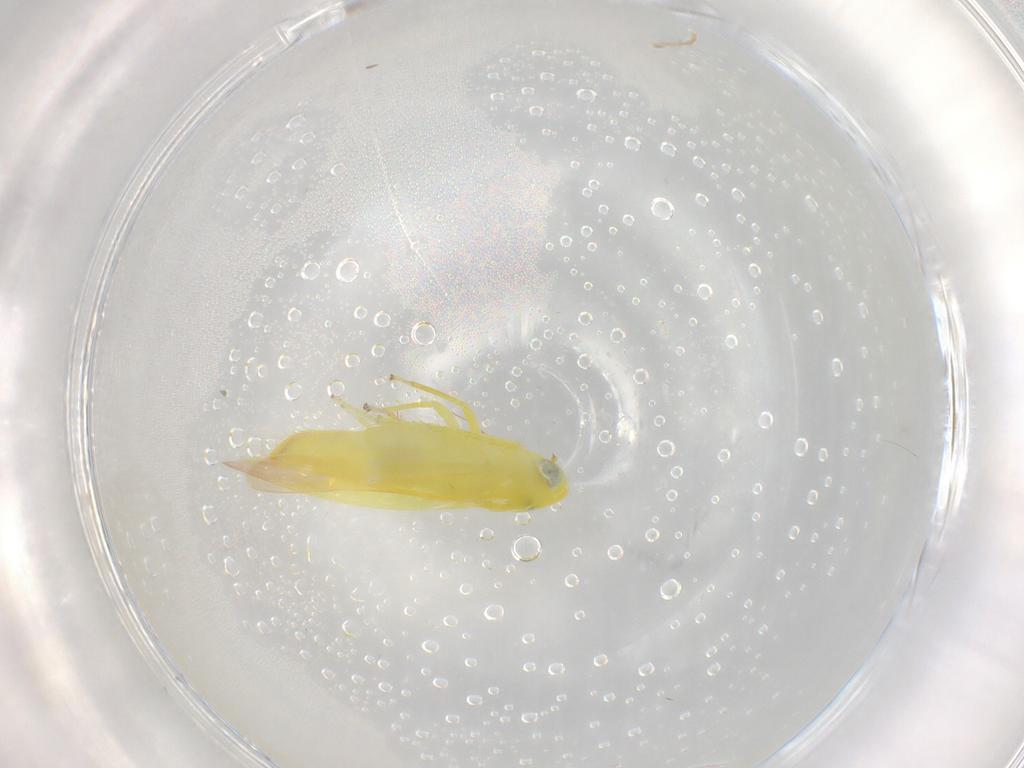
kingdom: Animalia
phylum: Arthropoda
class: Insecta
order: Hemiptera
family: Cicadellidae
